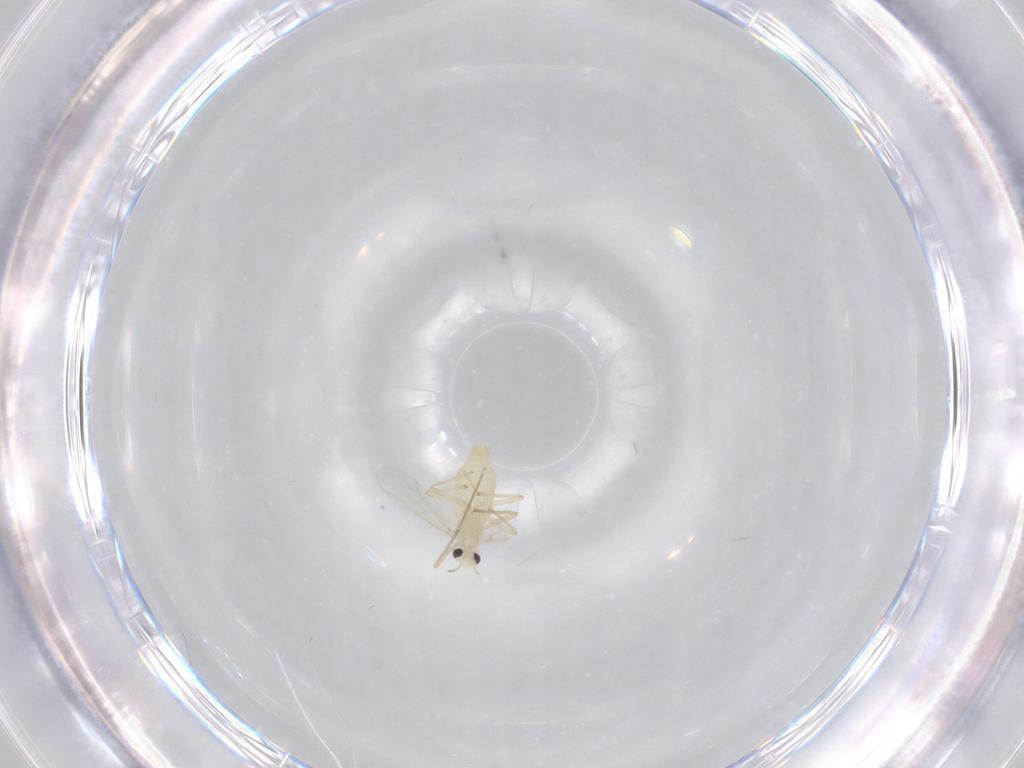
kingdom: Animalia
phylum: Arthropoda
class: Insecta
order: Diptera
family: Chironomidae
